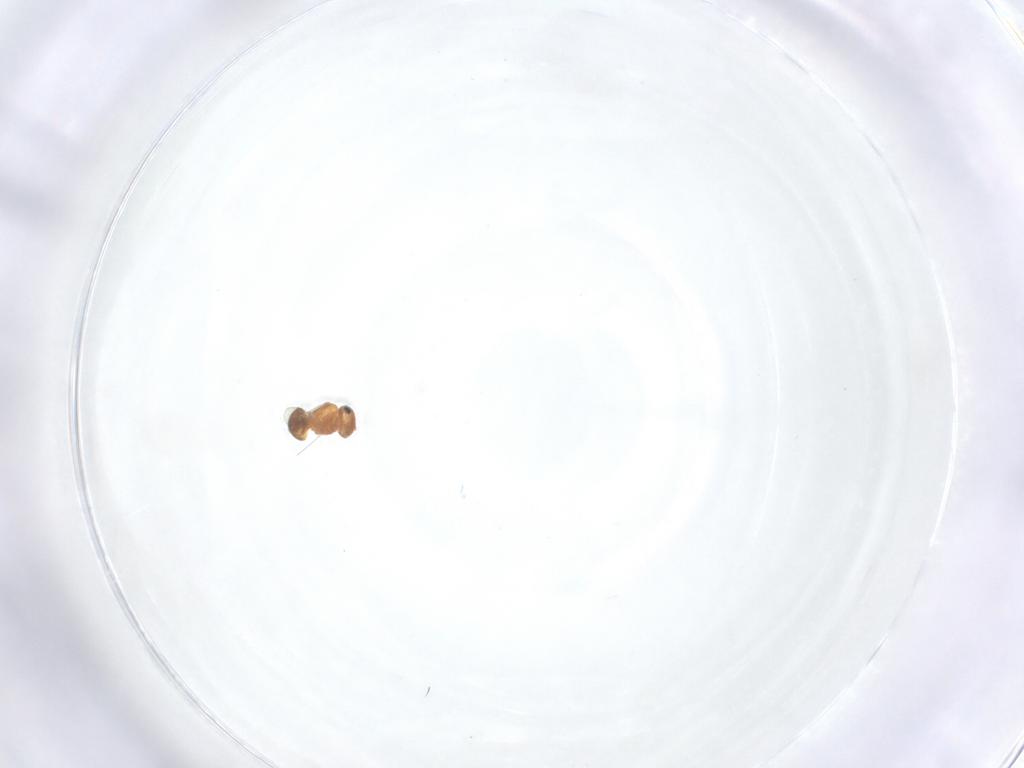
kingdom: Animalia
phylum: Arthropoda
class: Insecta
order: Hymenoptera
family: Scelionidae
